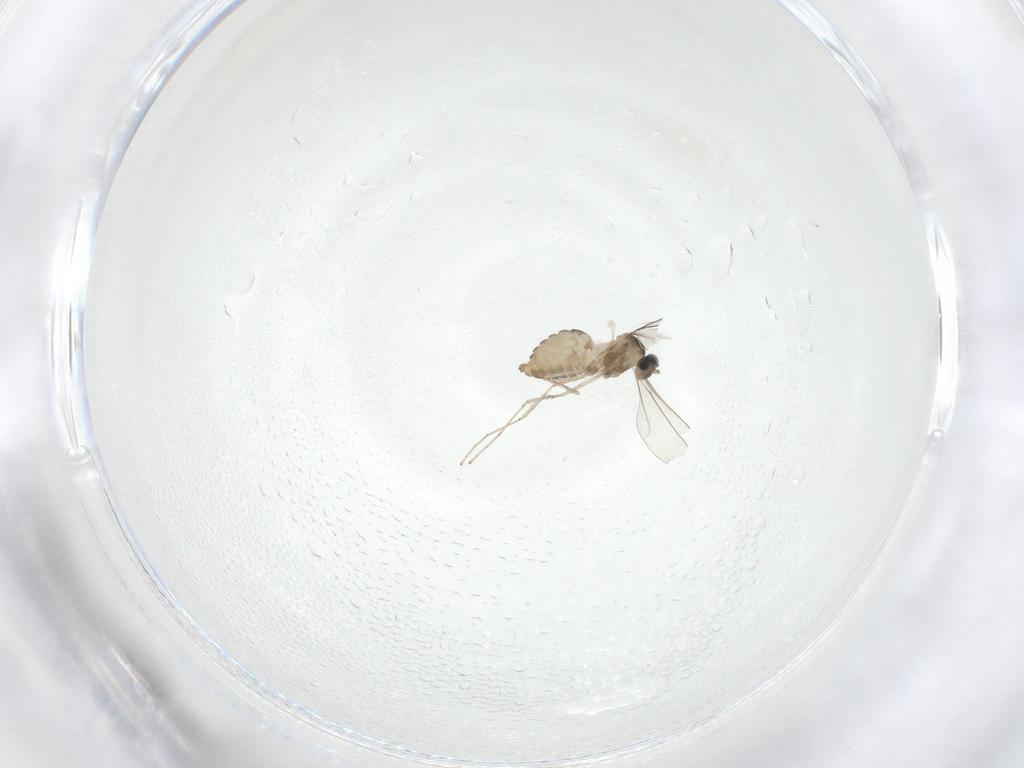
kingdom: Animalia
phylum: Arthropoda
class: Insecta
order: Diptera
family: Cecidomyiidae
